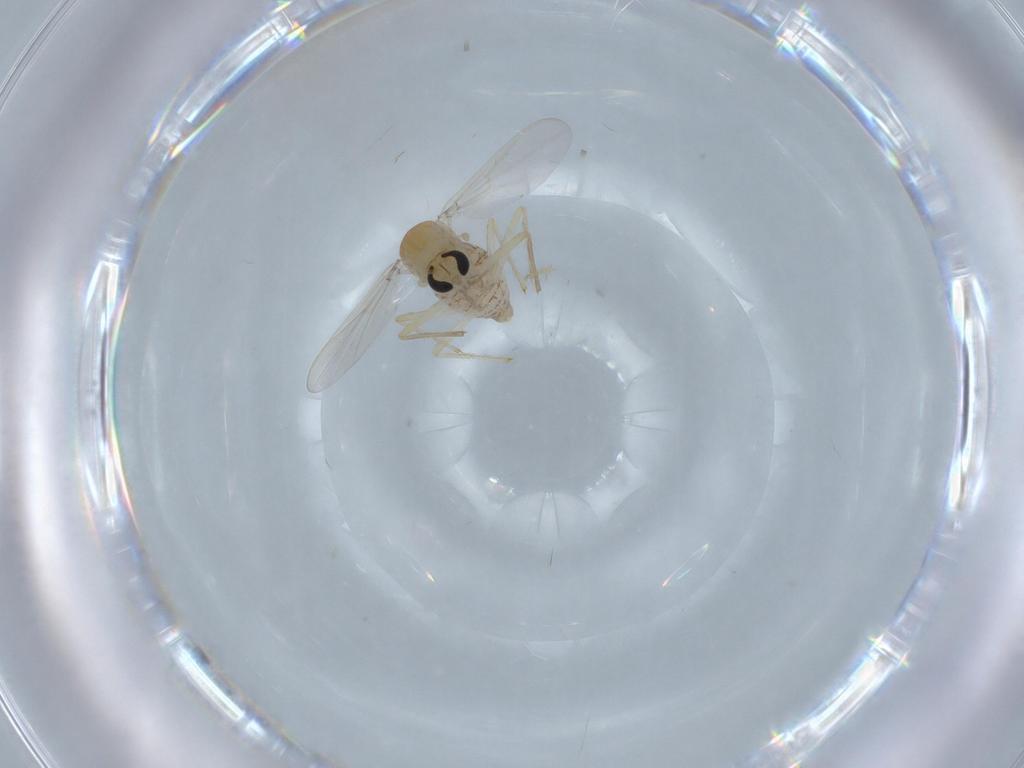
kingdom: Animalia
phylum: Arthropoda
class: Insecta
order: Diptera
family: Chironomidae
